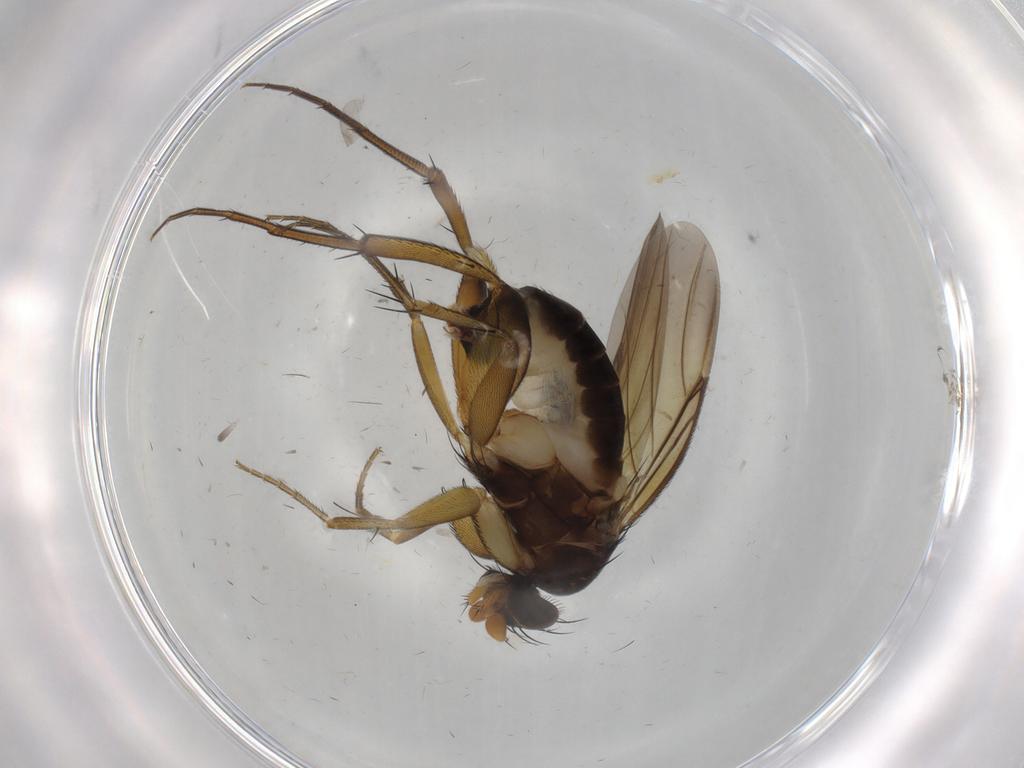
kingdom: Animalia
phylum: Arthropoda
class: Insecta
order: Diptera
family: Phoridae
